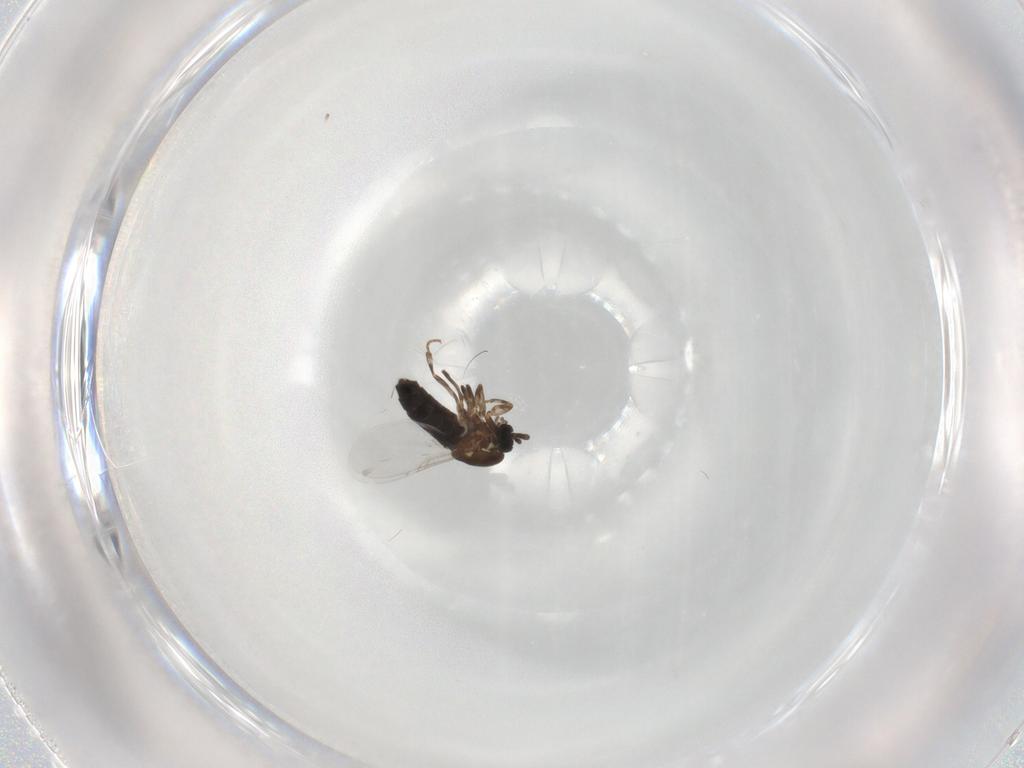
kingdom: Animalia
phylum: Arthropoda
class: Insecta
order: Diptera
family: Scatopsidae
